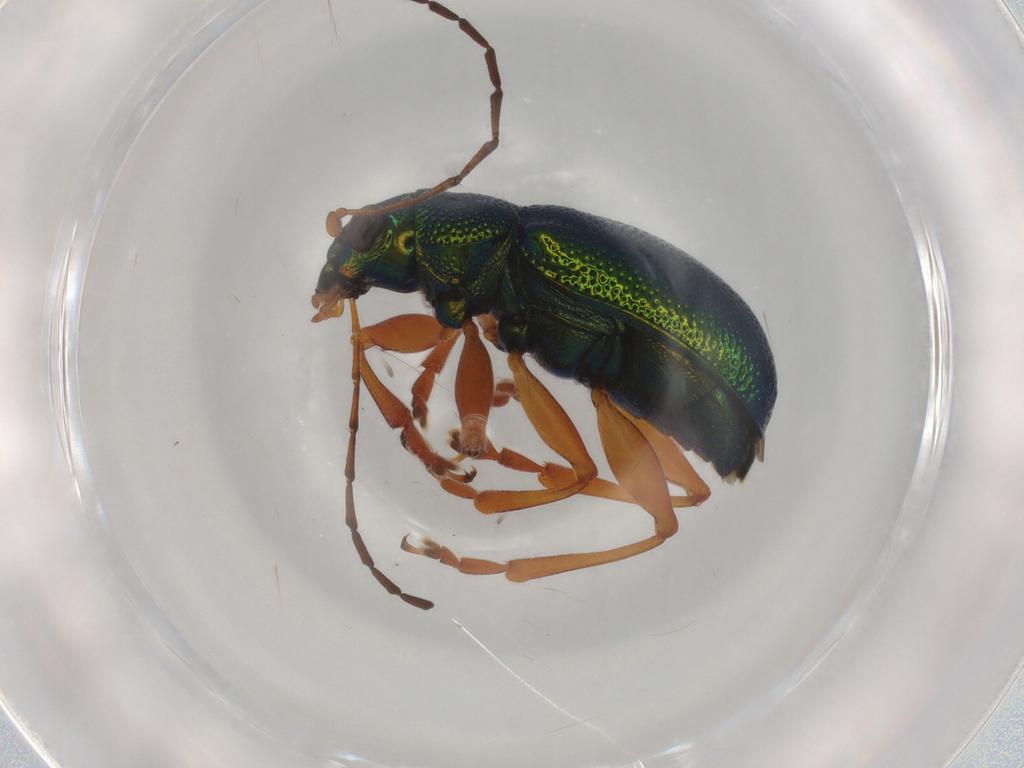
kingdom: Animalia
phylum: Arthropoda
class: Insecta
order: Coleoptera
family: Chrysomelidae
